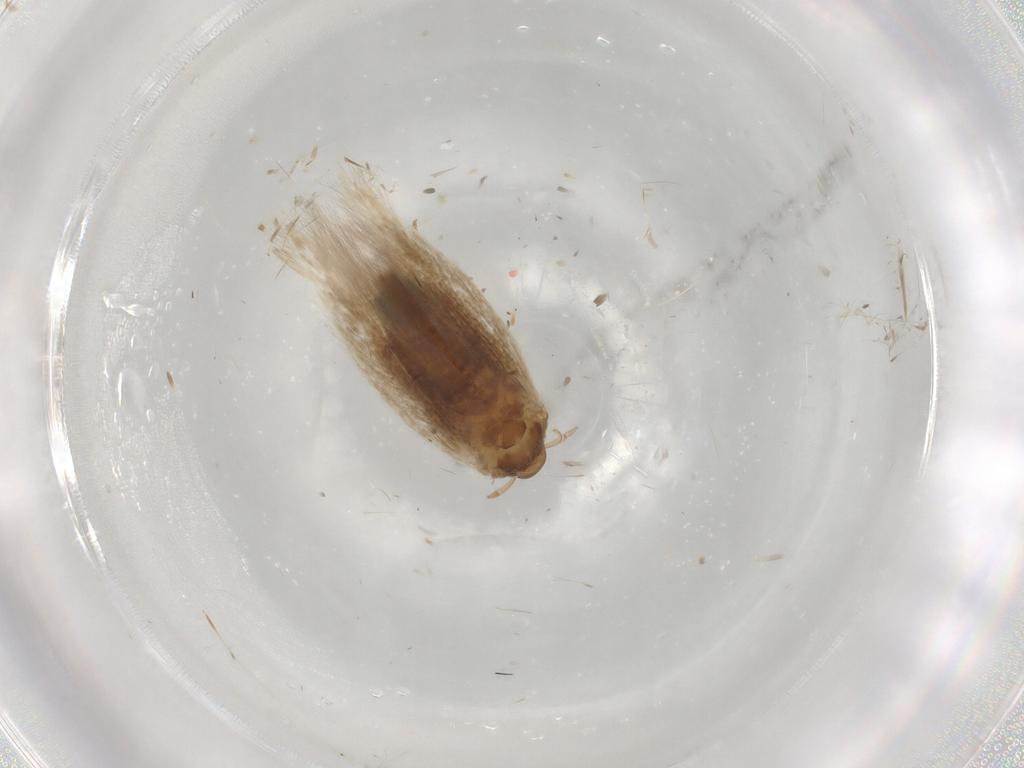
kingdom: Animalia
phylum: Arthropoda
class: Insecta
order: Lepidoptera
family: Cosmopterigidae
